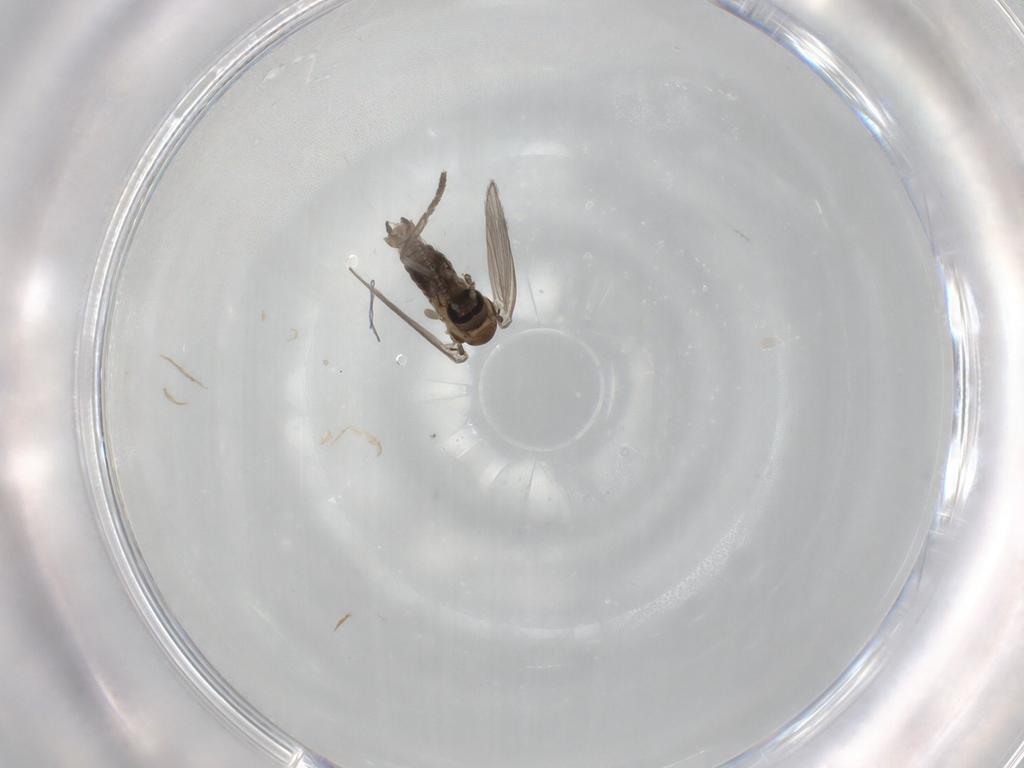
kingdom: Animalia
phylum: Arthropoda
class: Insecta
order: Diptera
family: Psychodidae
